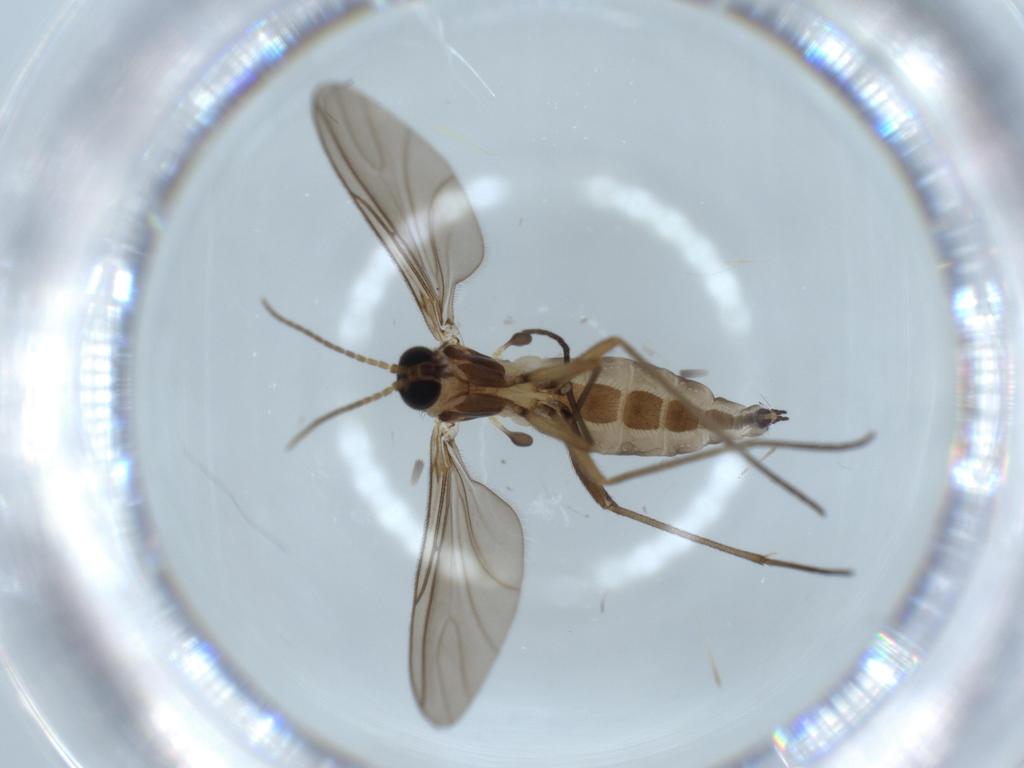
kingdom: Animalia
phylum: Arthropoda
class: Insecta
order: Diptera
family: Sciaridae
